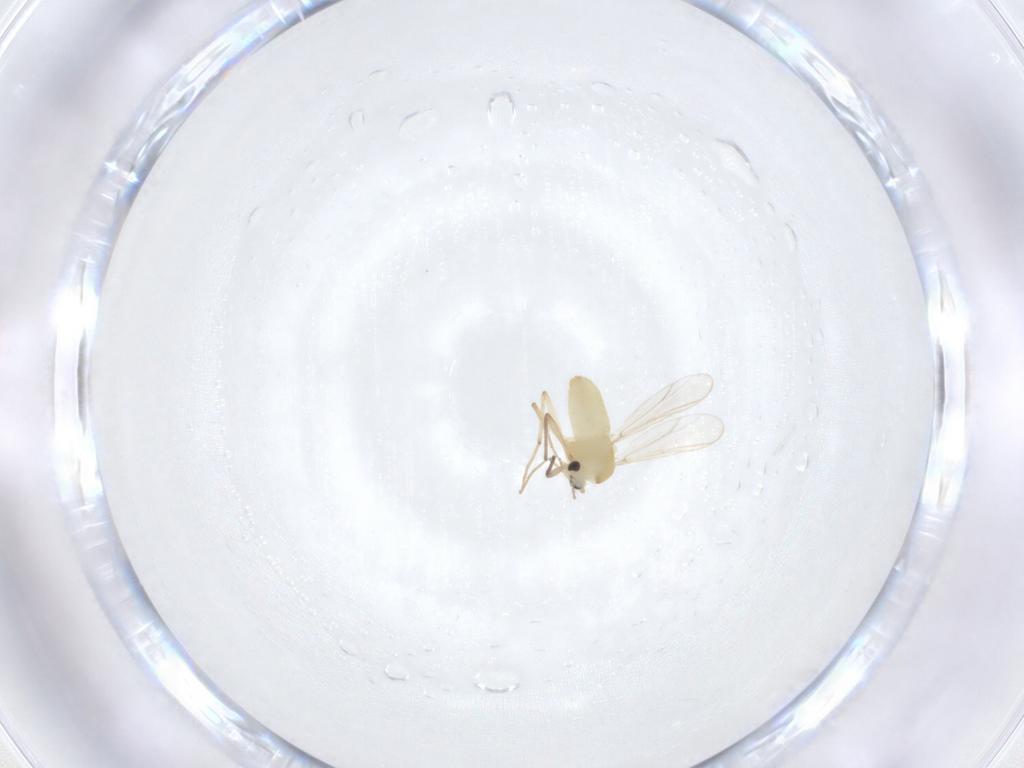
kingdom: Animalia
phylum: Arthropoda
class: Insecta
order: Diptera
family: Chironomidae
